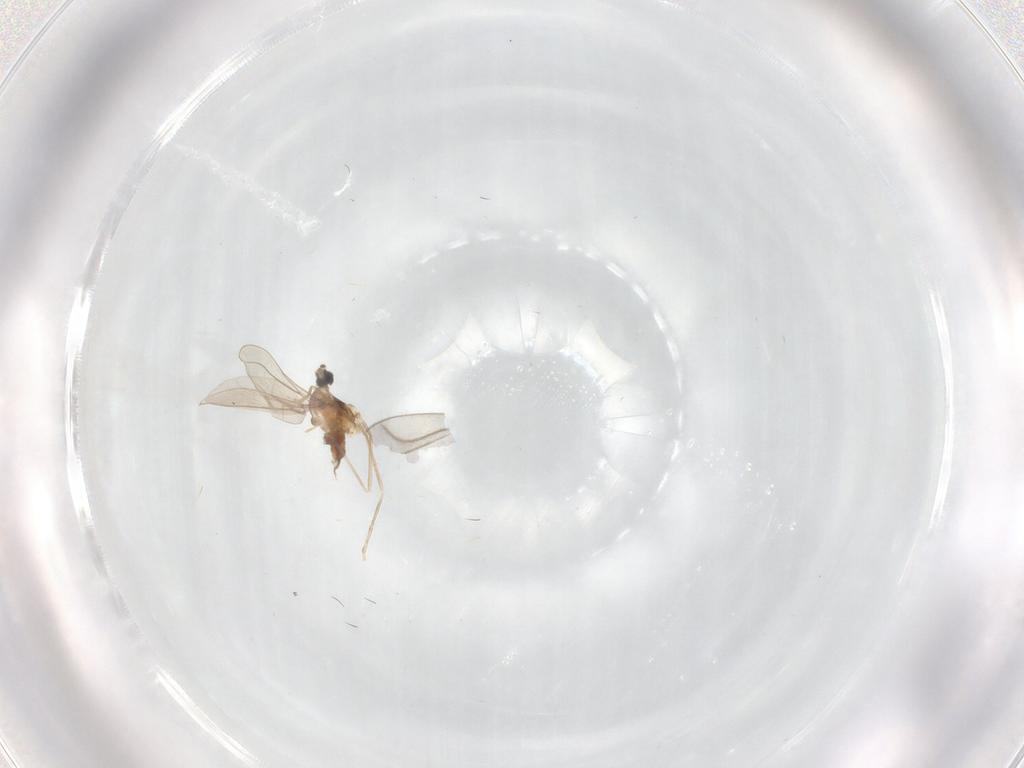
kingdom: Animalia
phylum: Arthropoda
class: Insecta
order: Diptera
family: Cecidomyiidae
